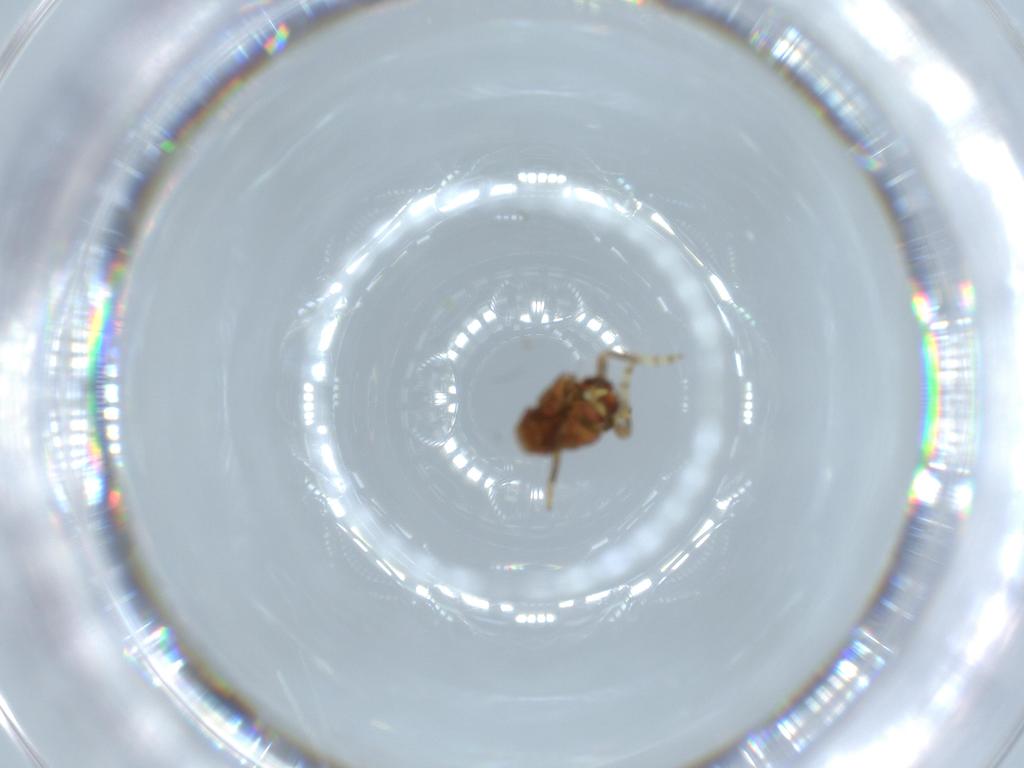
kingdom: Animalia
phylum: Arthropoda
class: Insecta
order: Hemiptera
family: Issidae
